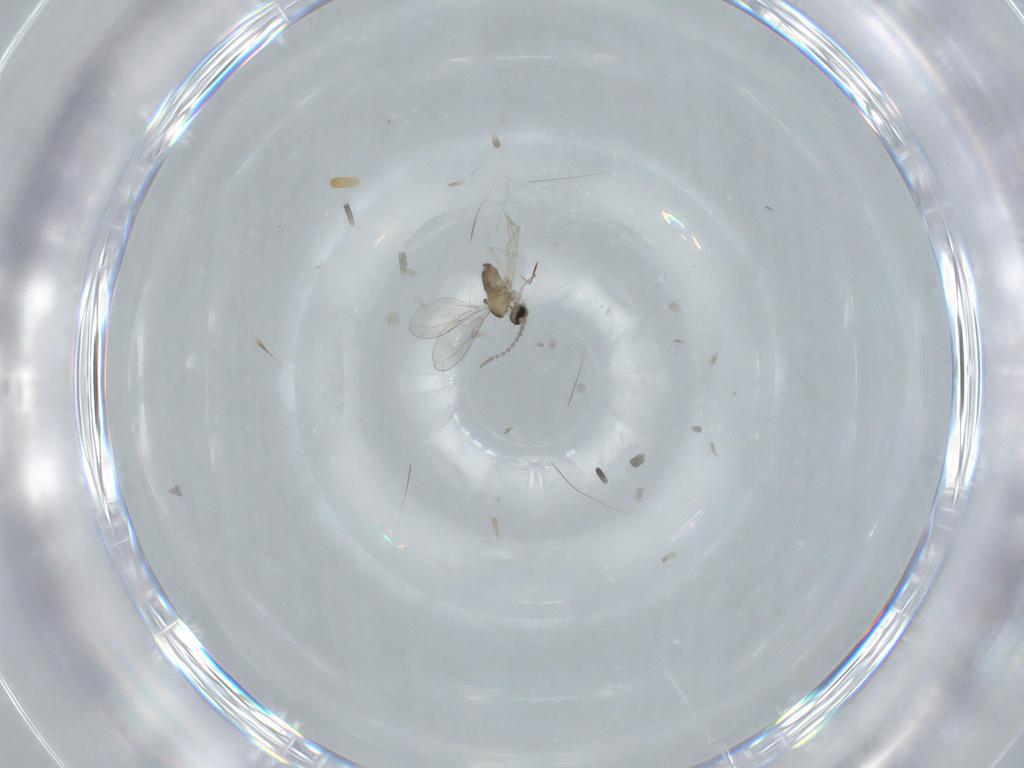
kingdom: Animalia
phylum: Arthropoda
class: Insecta
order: Diptera
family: Cecidomyiidae
